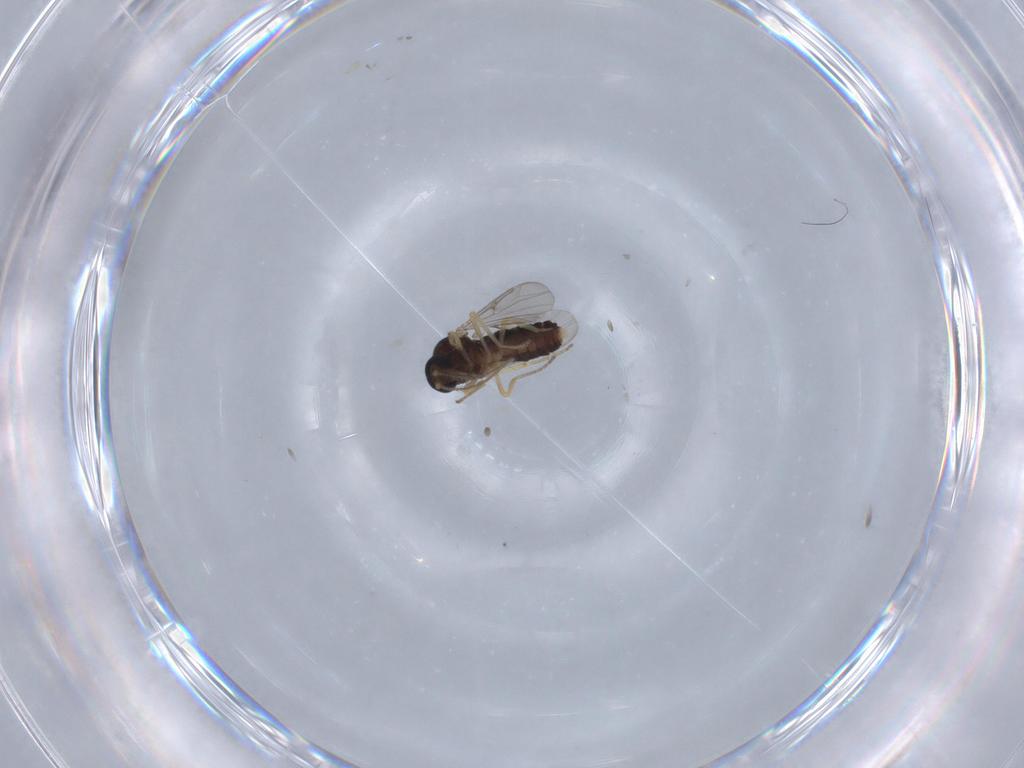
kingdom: Animalia
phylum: Arthropoda
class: Insecta
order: Diptera
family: Ceratopogonidae
